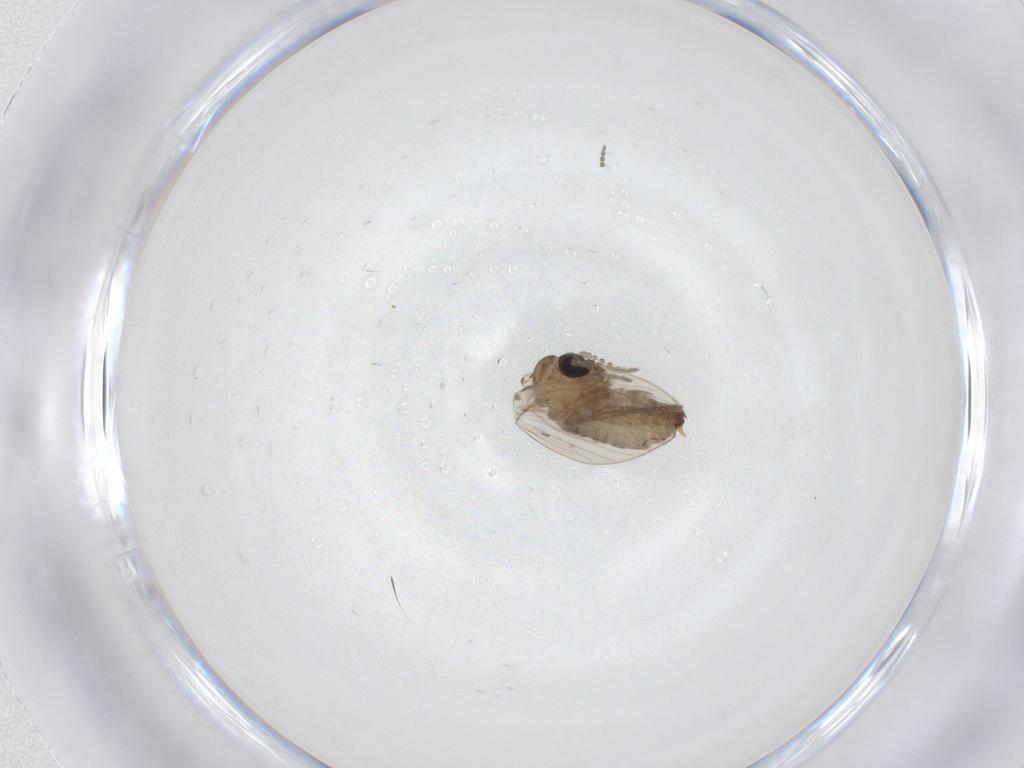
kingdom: Animalia
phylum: Arthropoda
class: Insecta
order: Diptera
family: Psychodidae
